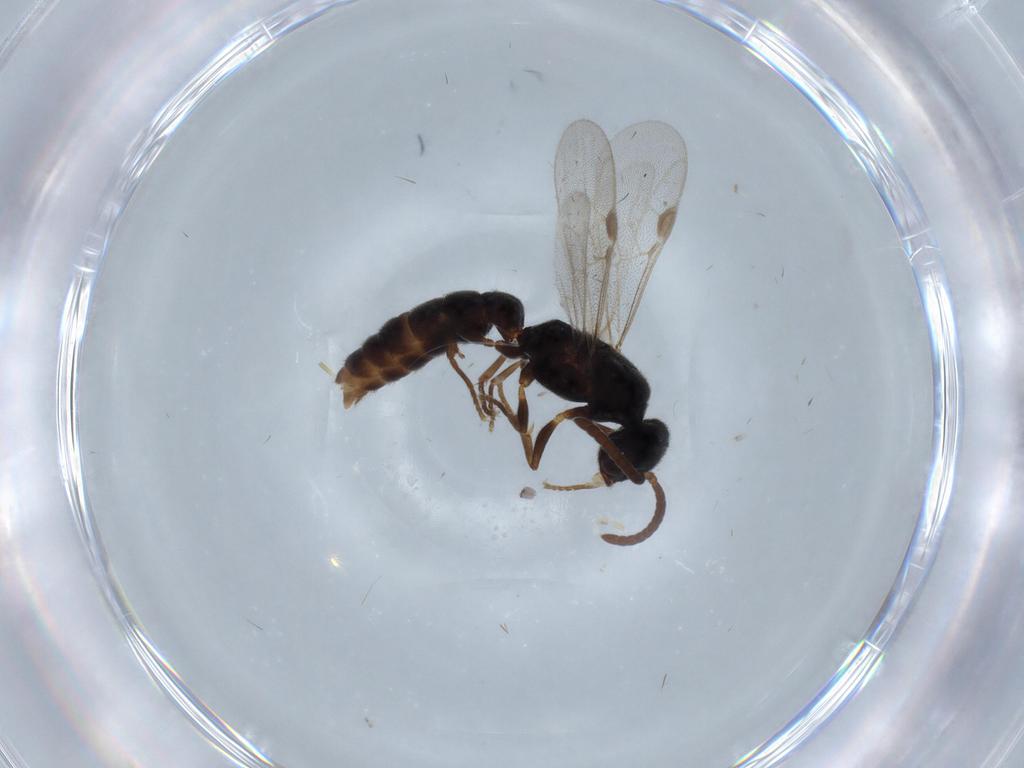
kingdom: Animalia
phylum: Arthropoda
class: Insecta
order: Hymenoptera
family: Formicidae
